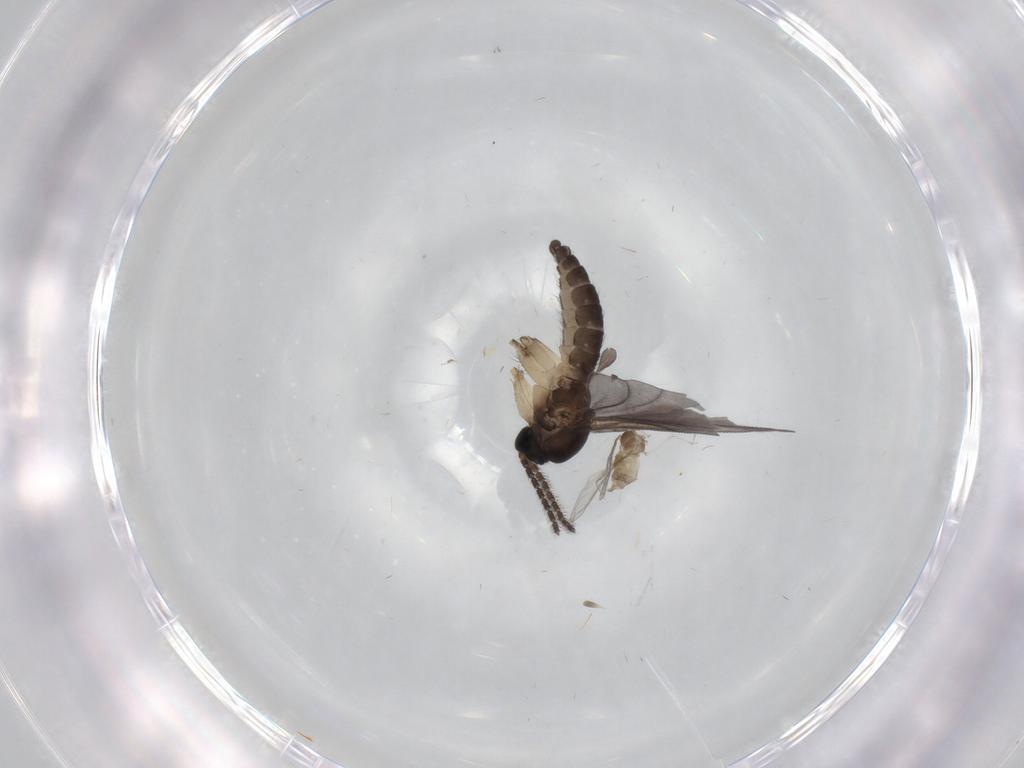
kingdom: Animalia
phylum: Arthropoda
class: Insecta
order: Diptera
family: Sciaridae
